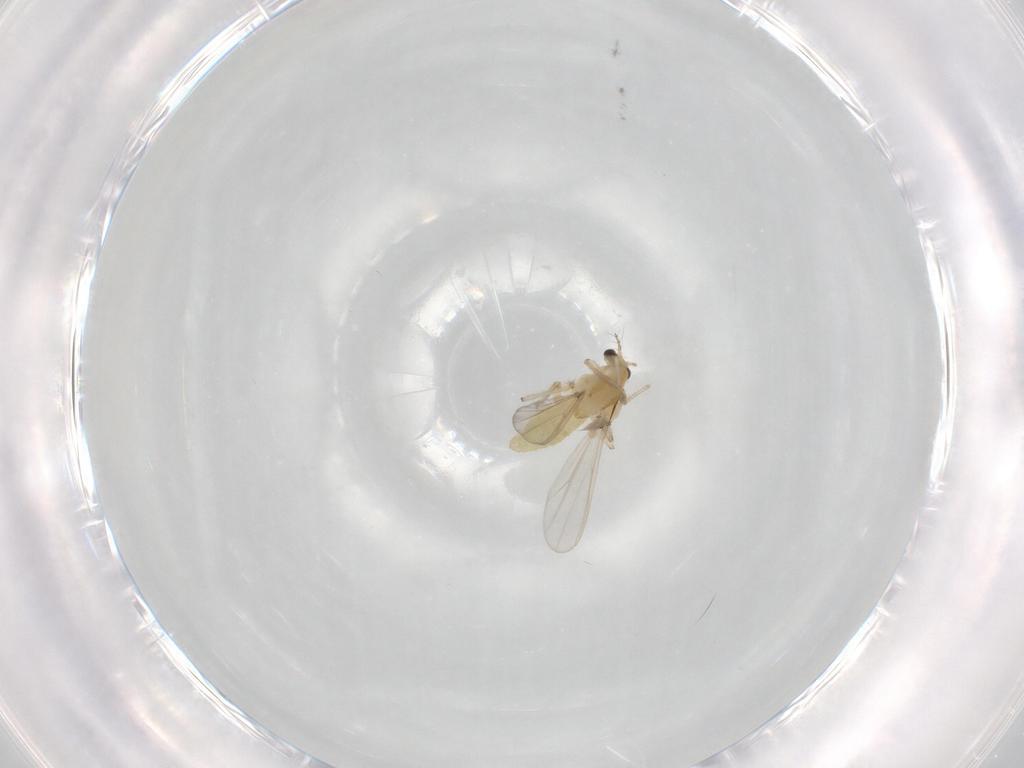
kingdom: Animalia
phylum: Arthropoda
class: Insecta
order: Diptera
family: Chironomidae
